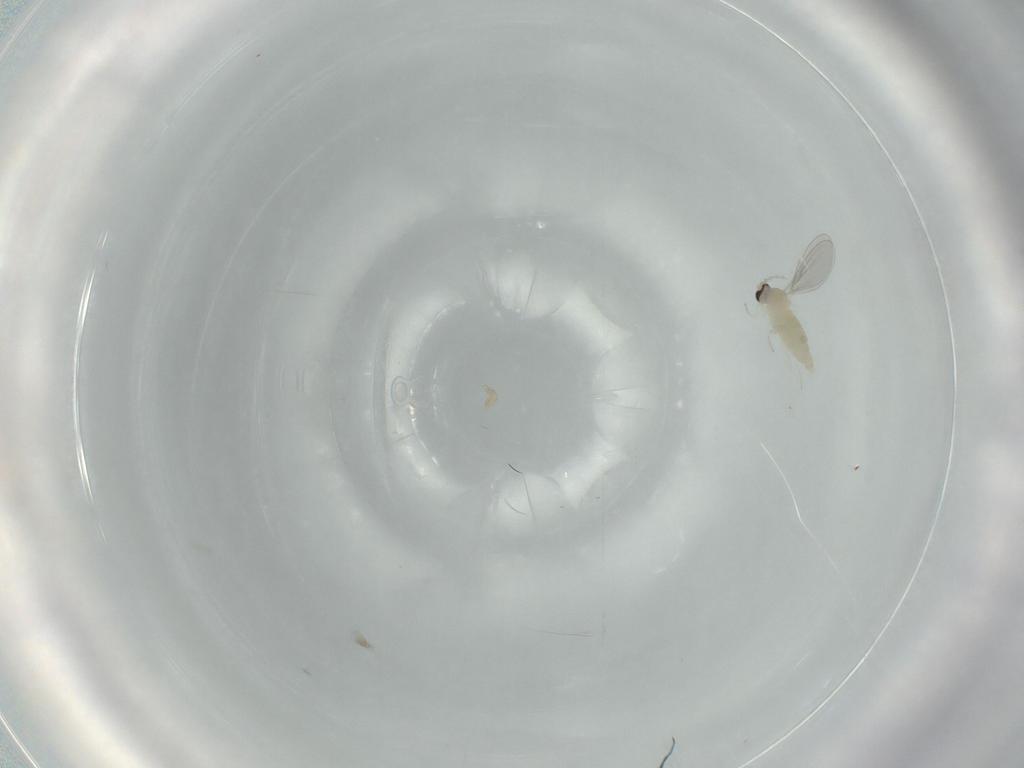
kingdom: Animalia
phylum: Arthropoda
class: Insecta
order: Diptera
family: Cecidomyiidae
